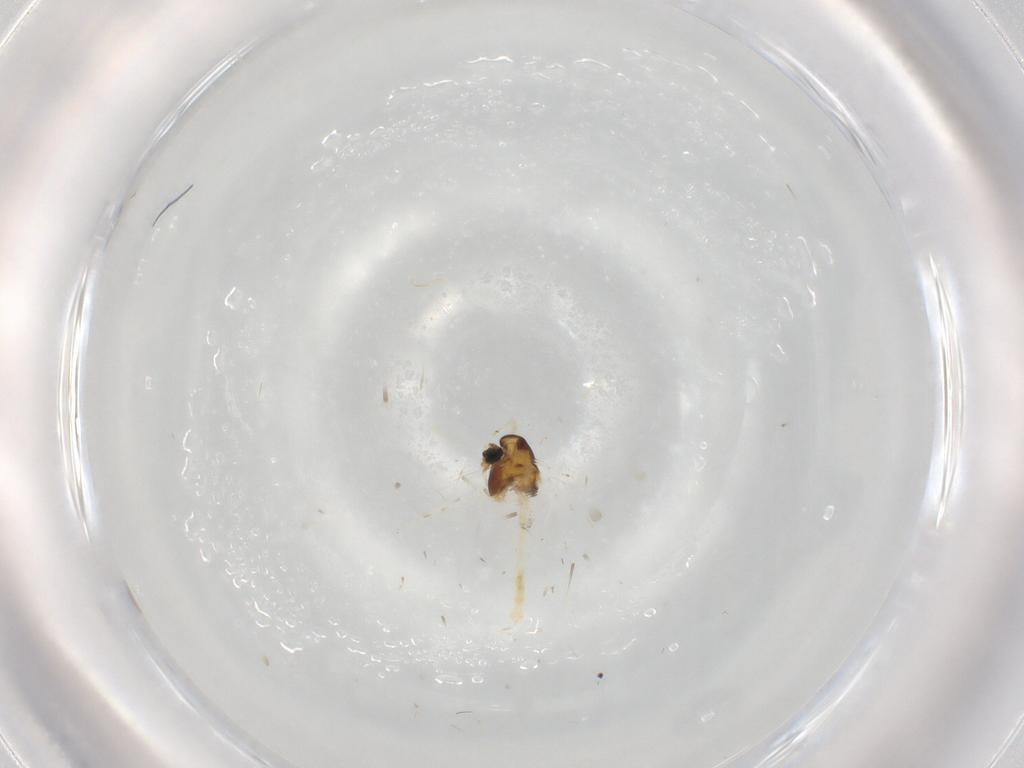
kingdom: Animalia
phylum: Arthropoda
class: Insecta
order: Diptera
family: Chironomidae
